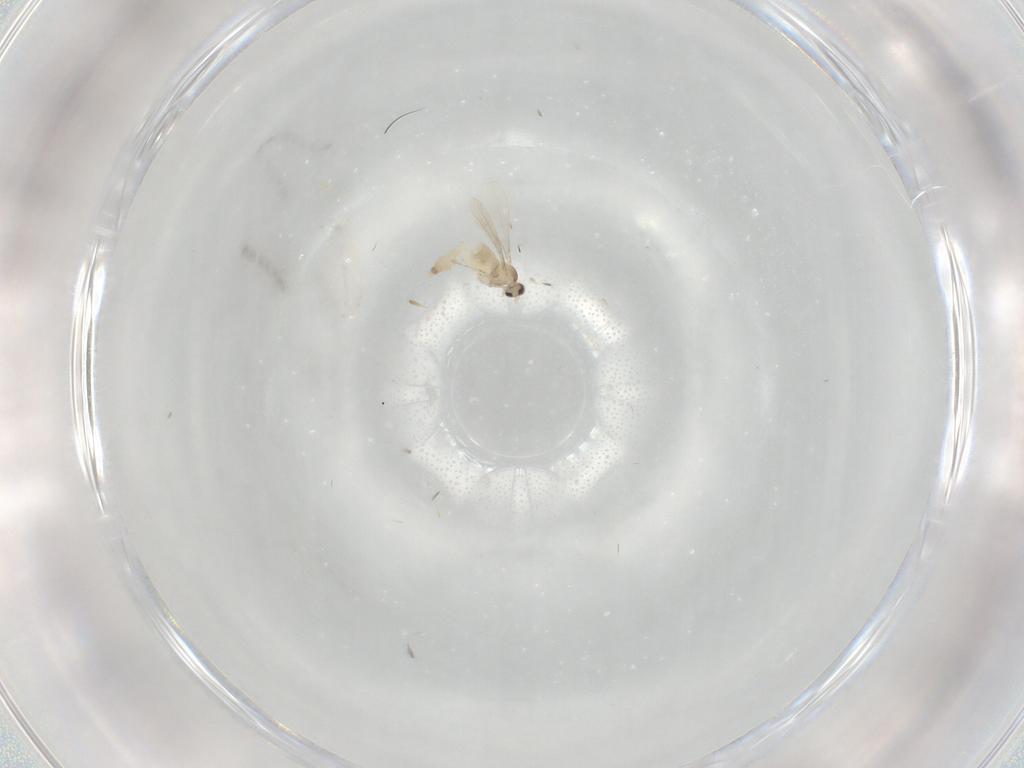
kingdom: Animalia
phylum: Arthropoda
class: Insecta
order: Diptera
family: Cecidomyiidae
